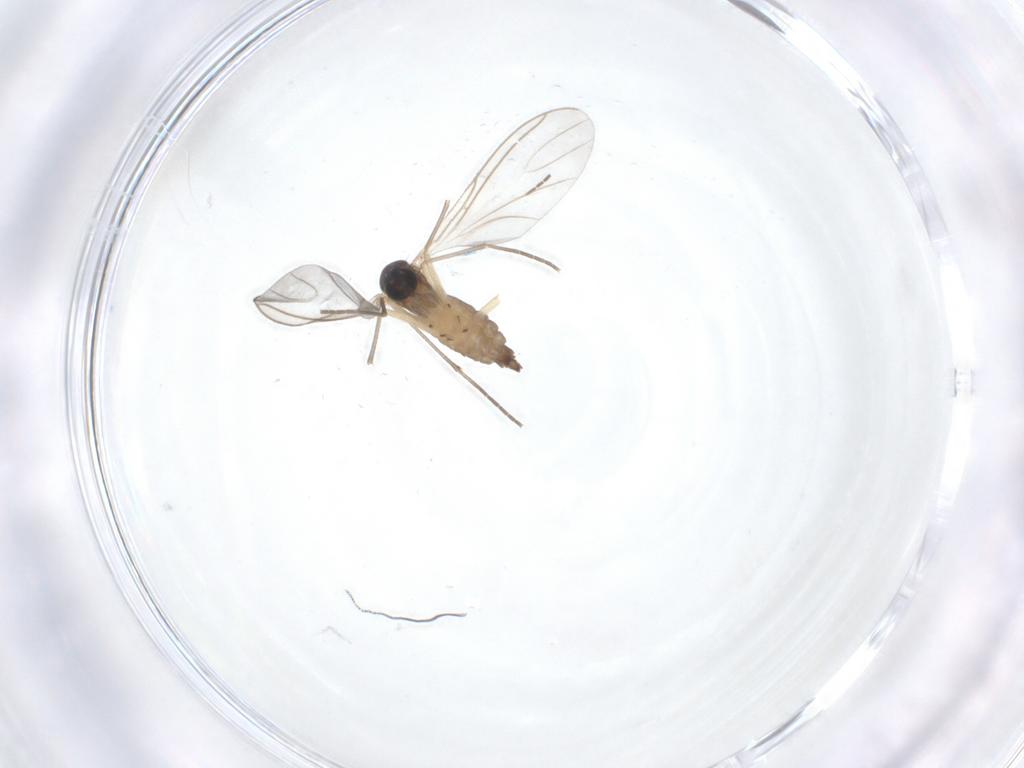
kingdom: Animalia
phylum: Arthropoda
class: Insecta
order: Diptera
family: Sciaridae
